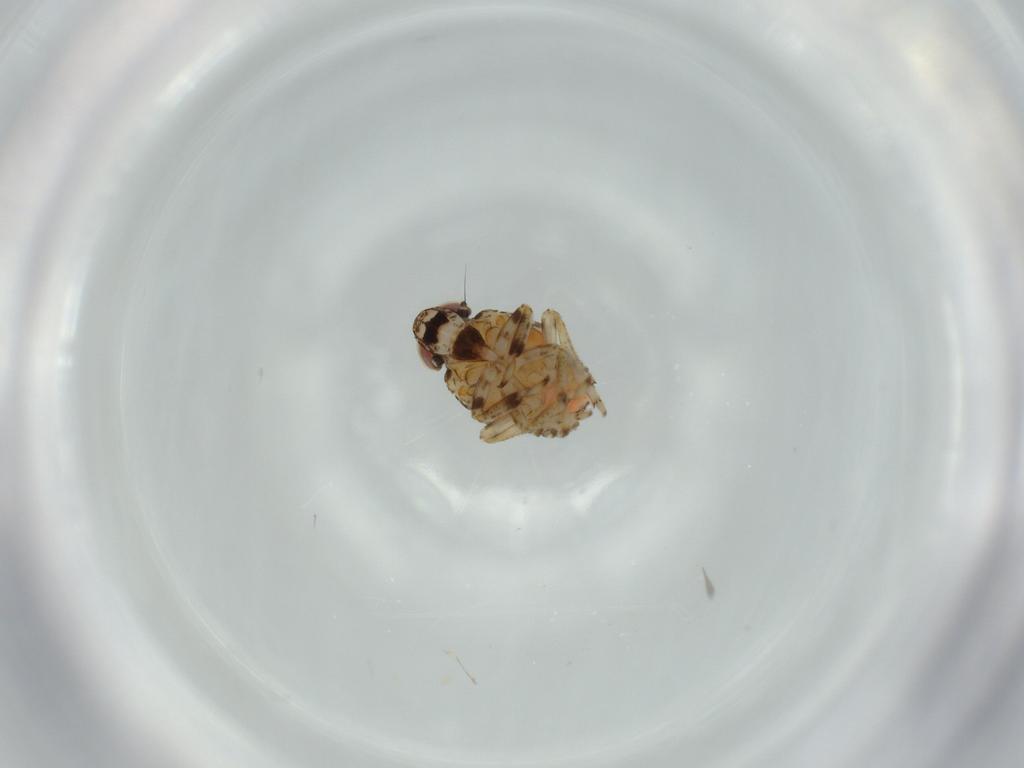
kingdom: Animalia
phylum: Arthropoda
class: Insecta
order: Hemiptera
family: Issidae
